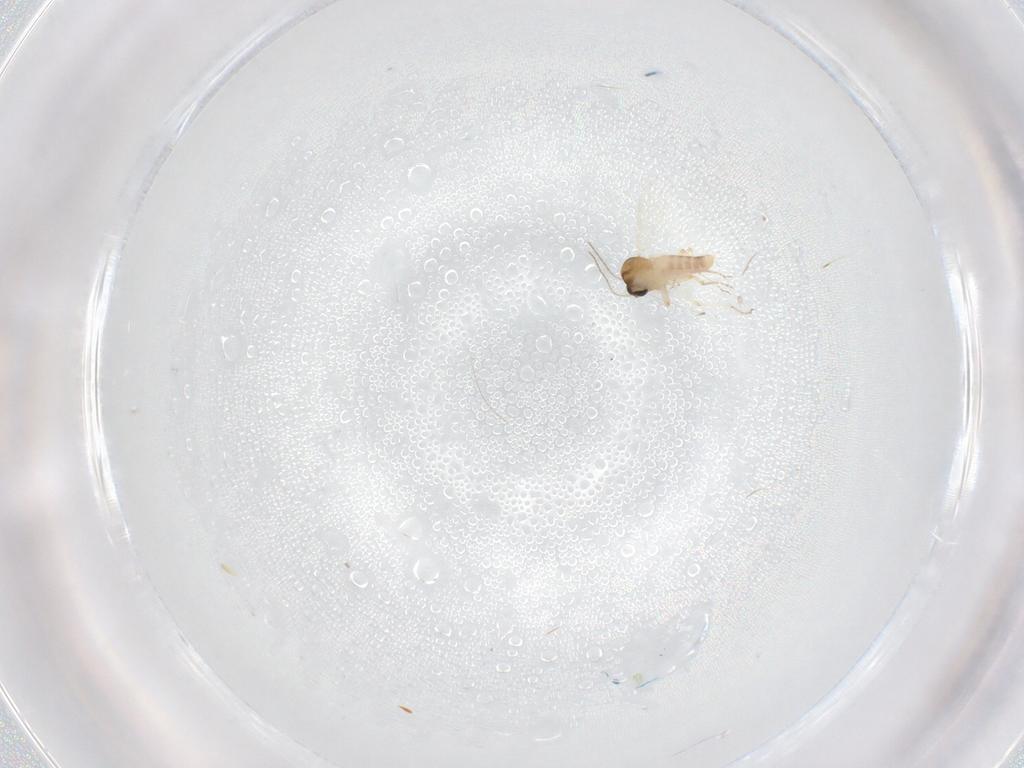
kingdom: Animalia
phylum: Arthropoda
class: Insecta
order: Diptera
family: Ceratopogonidae
